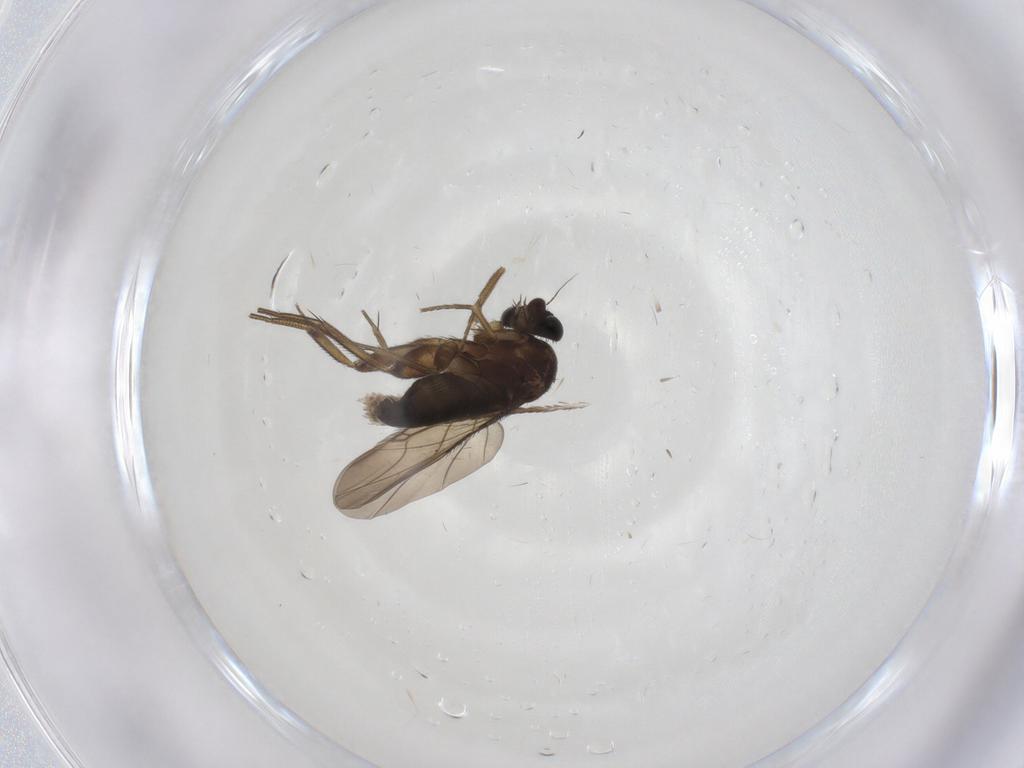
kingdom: Animalia
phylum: Arthropoda
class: Insecta
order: Diptera
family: Phoridae
